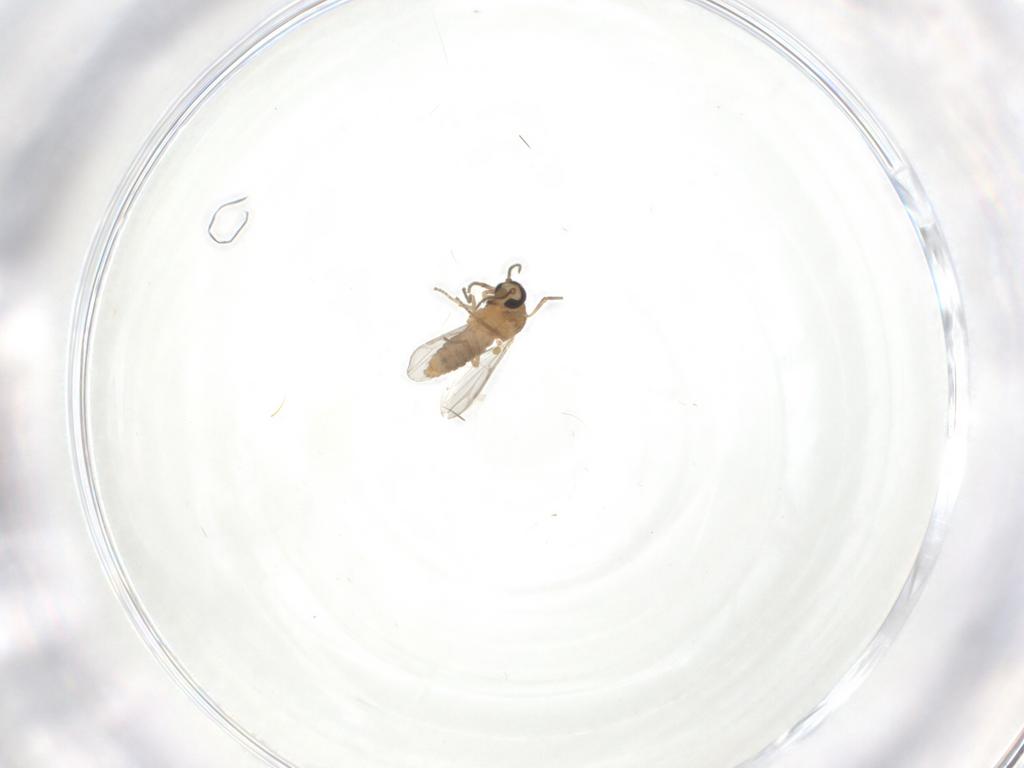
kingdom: Animalia
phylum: Arthropoda
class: Insecta
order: Diptera
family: Ceratopogonidae
